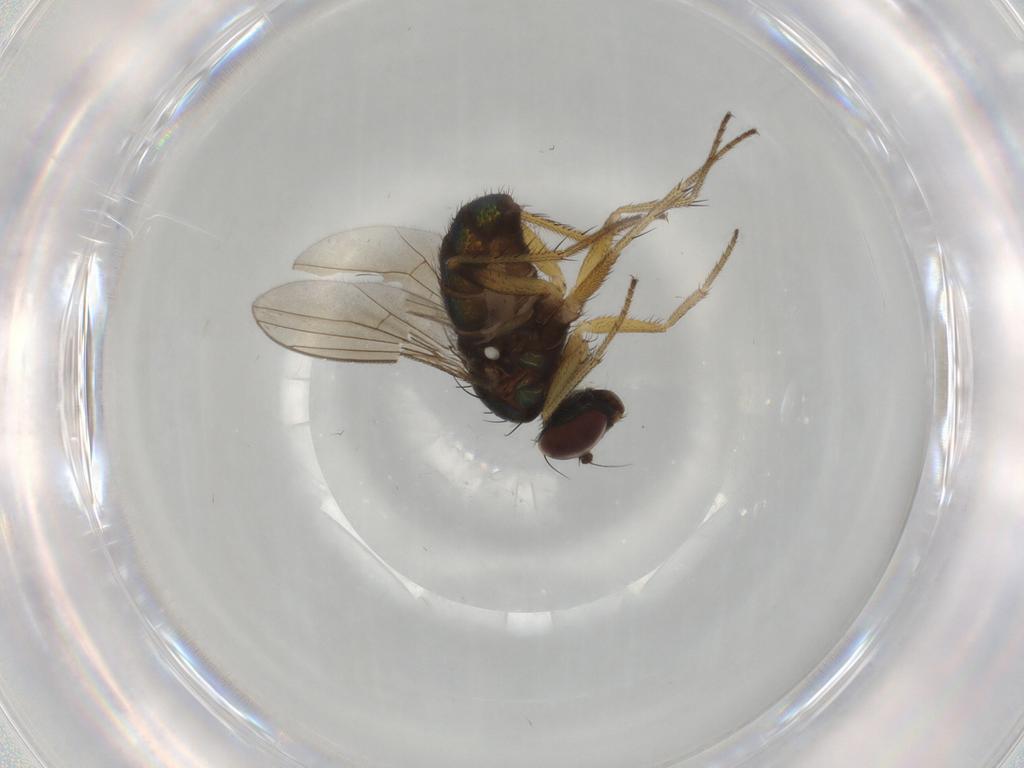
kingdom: Animalia
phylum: Arthropoda
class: Insecta
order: Diptera
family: Dolichopodidae
